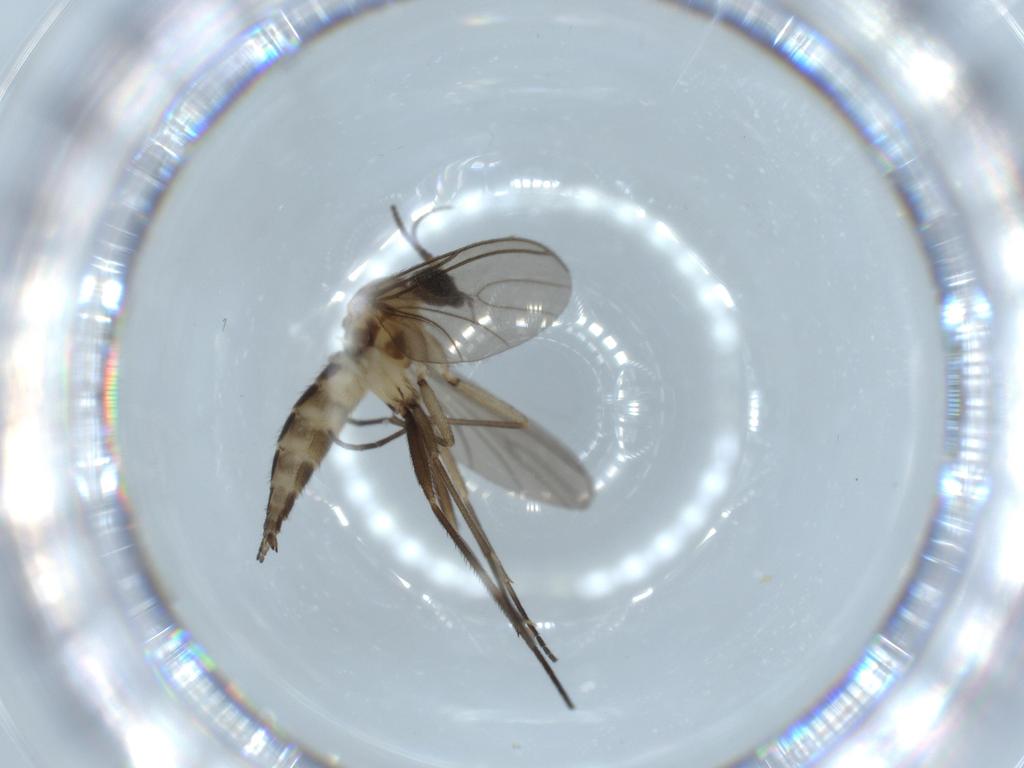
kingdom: Animalia
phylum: Arthropoda
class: Insecta
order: Diptera
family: Sciaridae
